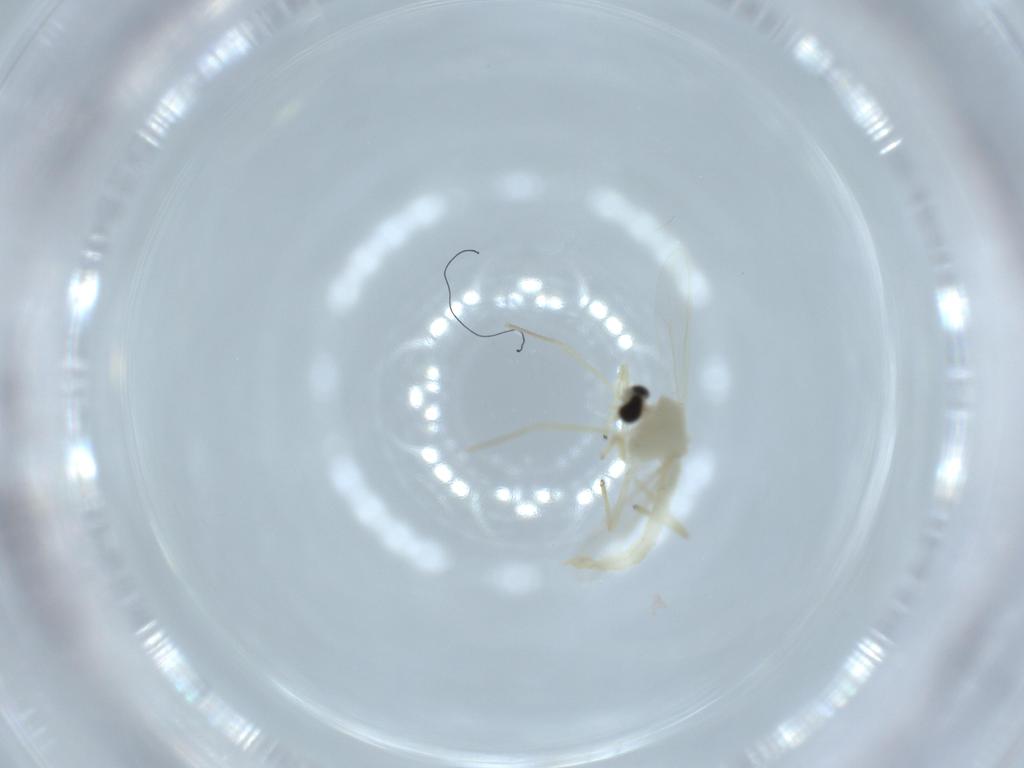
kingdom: Animalia
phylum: Arthropoda
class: Insecta
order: Diptera
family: Chironomidae
